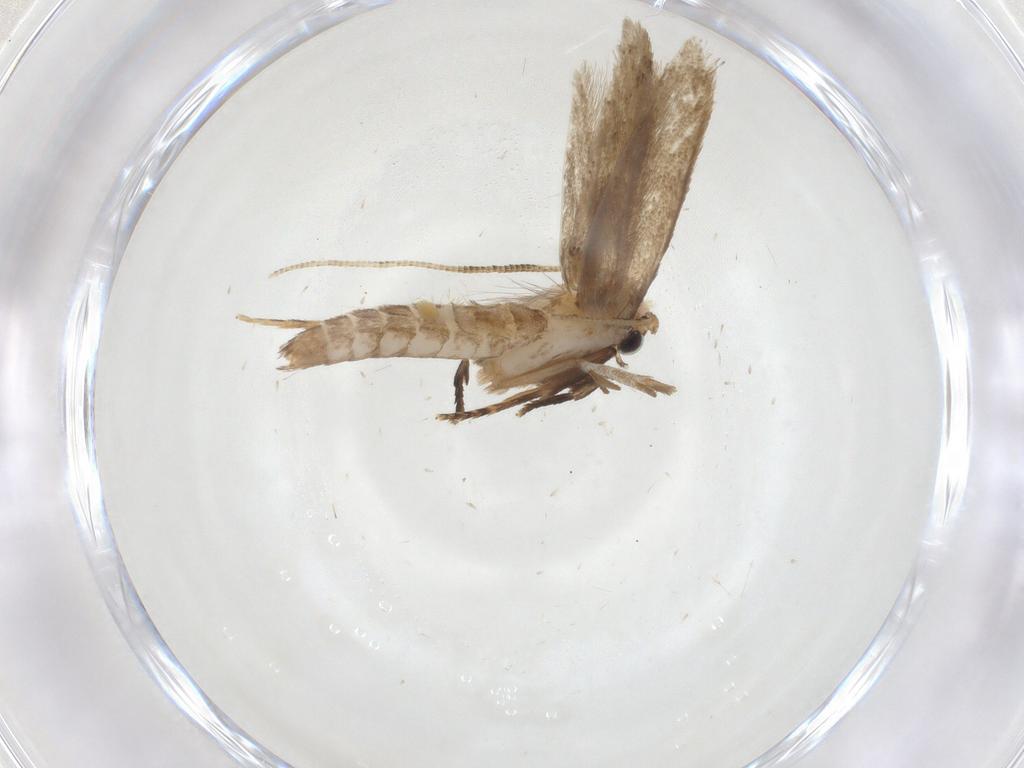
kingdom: Animalia
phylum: Arthropoda
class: Insecta
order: Lepidoptera
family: Tineidae
